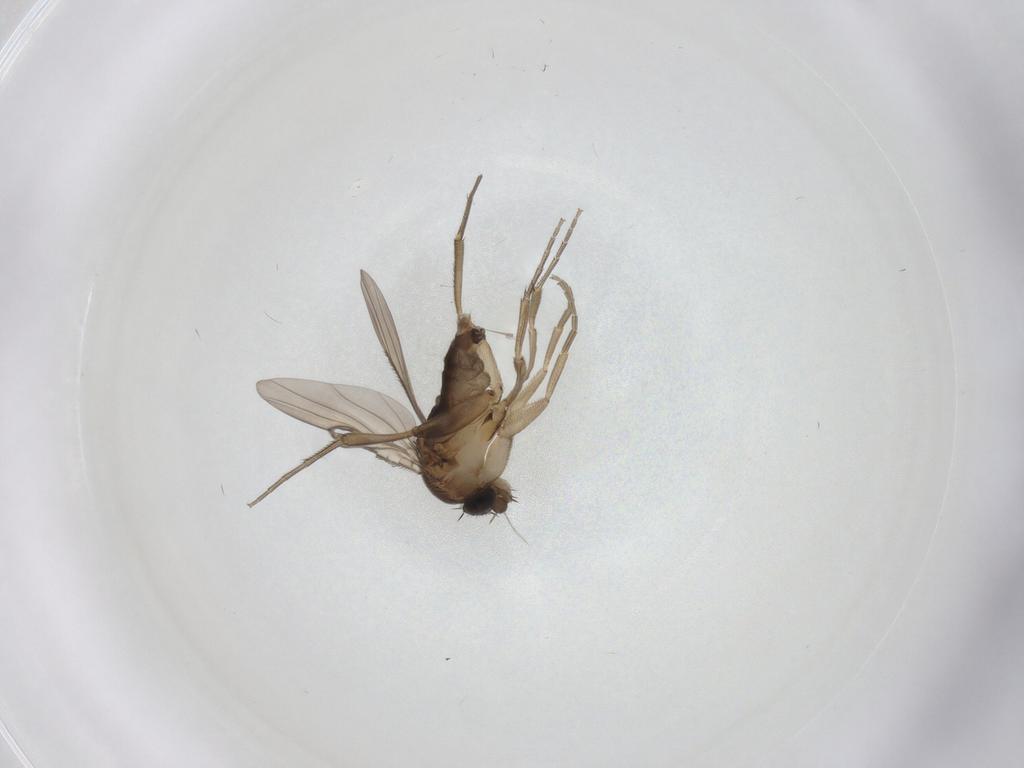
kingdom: Animalia
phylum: Arthropoda
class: Insecta
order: Diptera
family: Phoridae
